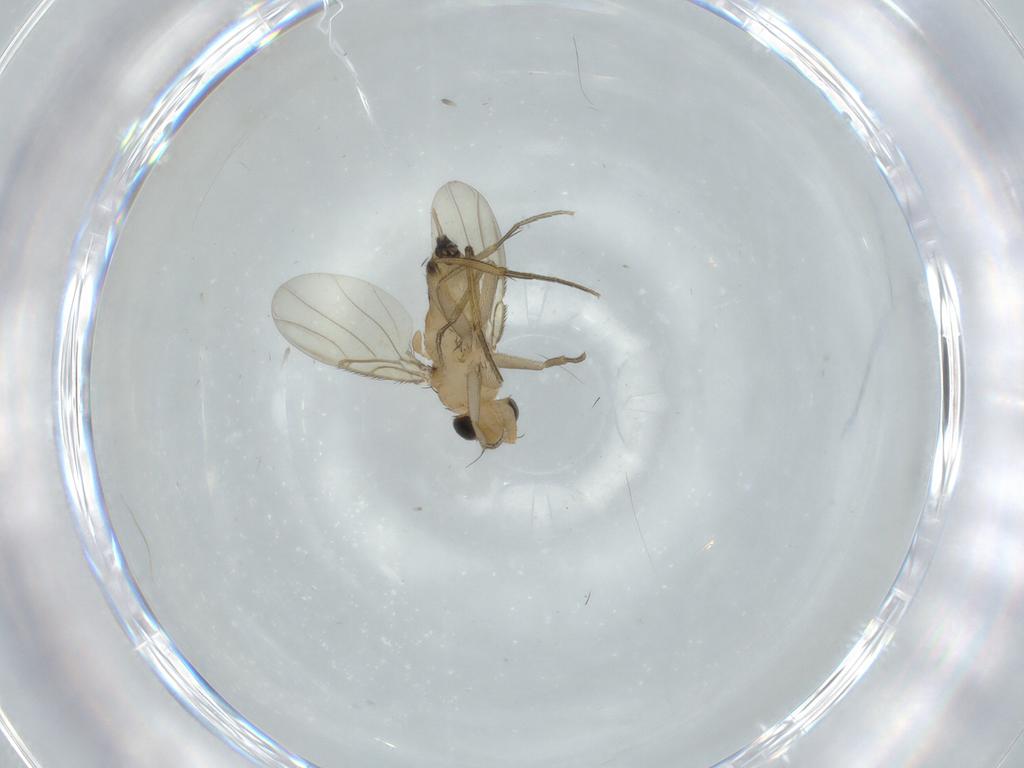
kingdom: Animalia
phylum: Arthropoda
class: Insecta
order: Diptera
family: Phoridae
